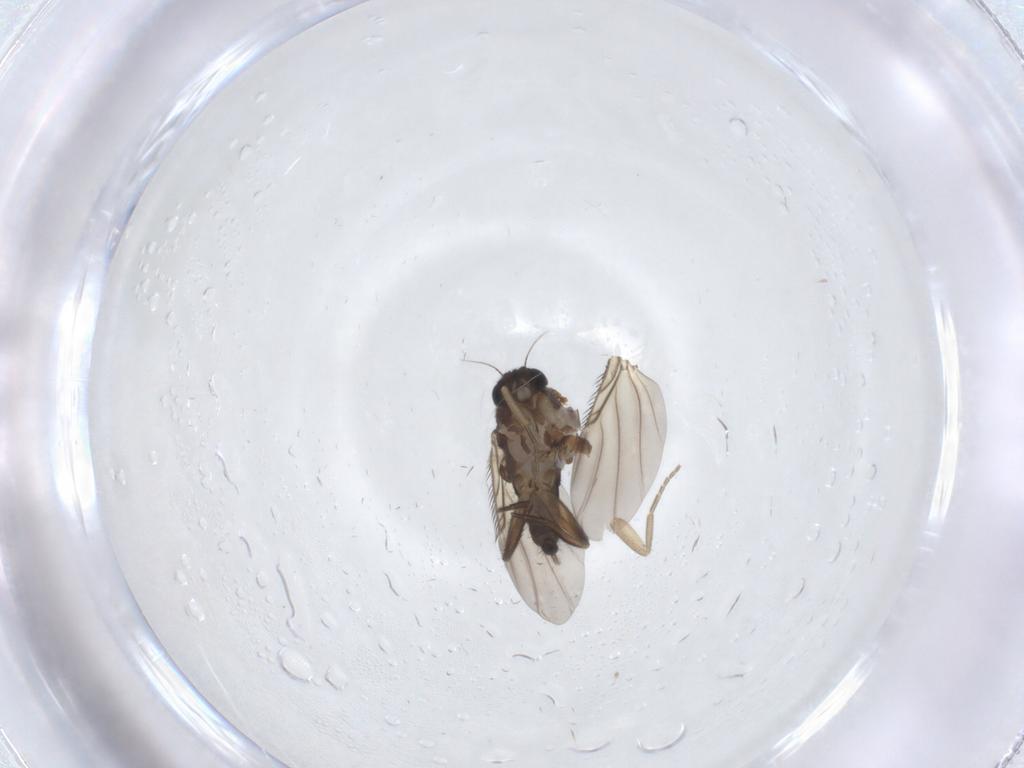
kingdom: Animalia
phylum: Arthropoda
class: Insecta
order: Diptera
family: Phoridae
